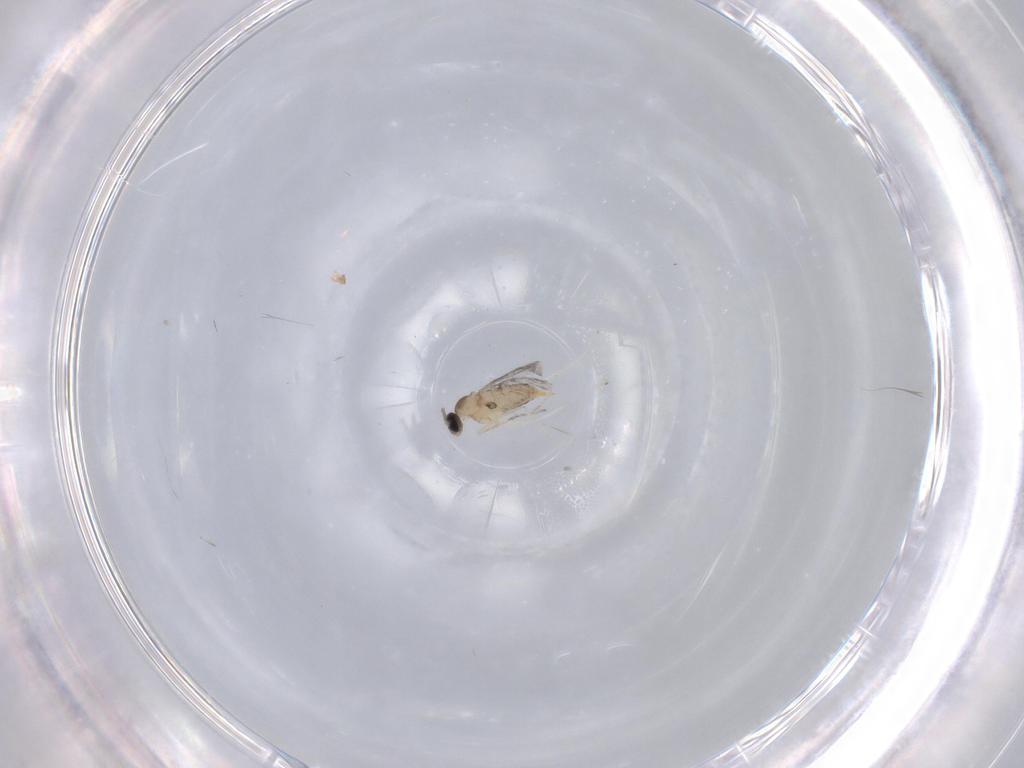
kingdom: Animalia
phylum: Arthropoda
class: Insecta
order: Diptera
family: Cecidomyiidae
